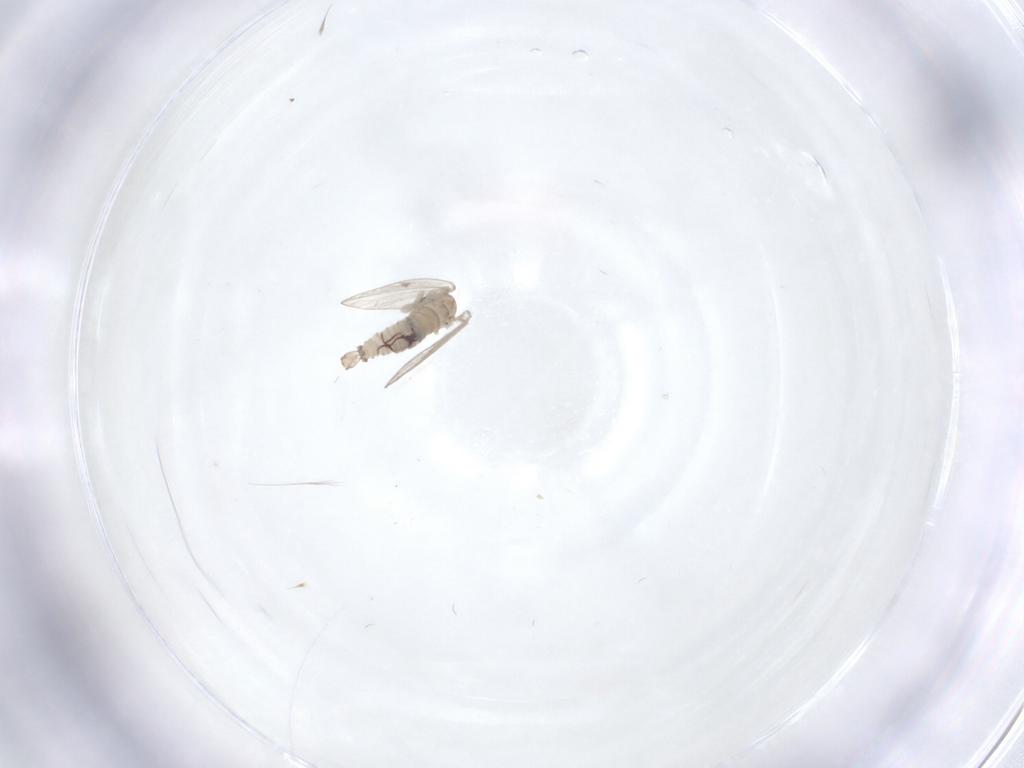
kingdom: Animalia
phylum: Arthropoda
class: Insecta
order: Diptera
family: Psychodidae
